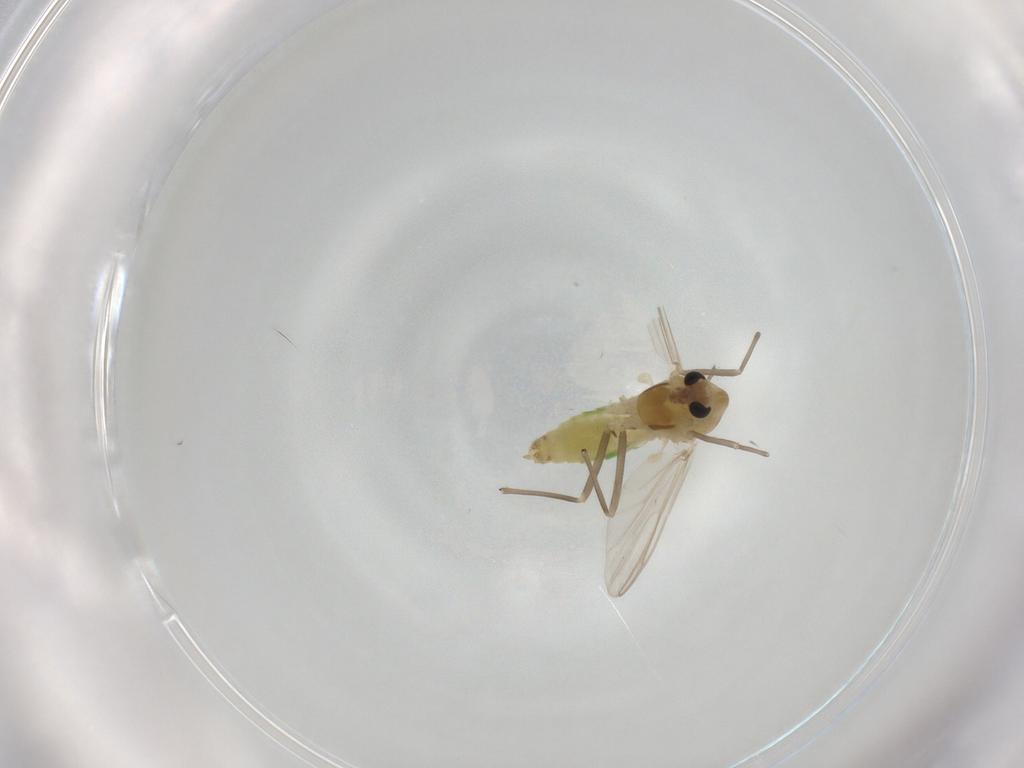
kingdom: Animalia
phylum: Arthropoda
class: Insecta
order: Diptera
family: Chironomidae
